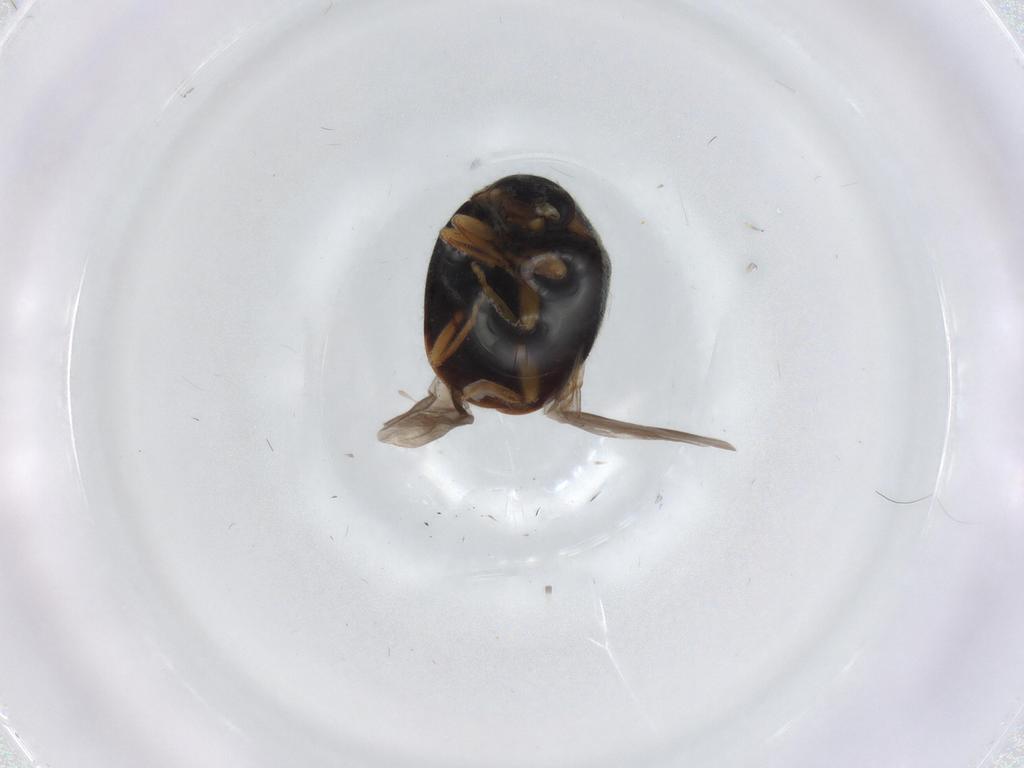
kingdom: Animalia
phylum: Arthropoda
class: Insecta
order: Coleoptera
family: Coccinellidae
